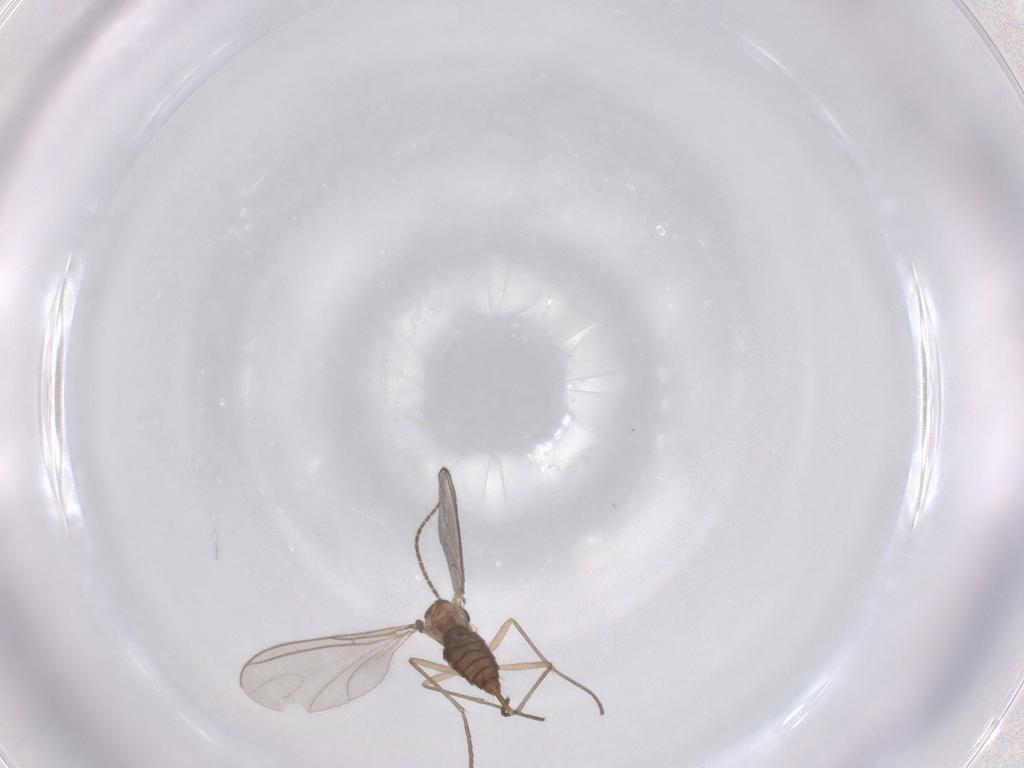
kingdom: Animalia
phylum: Arthropoda
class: Insecta
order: Diptera
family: Sciaridae
